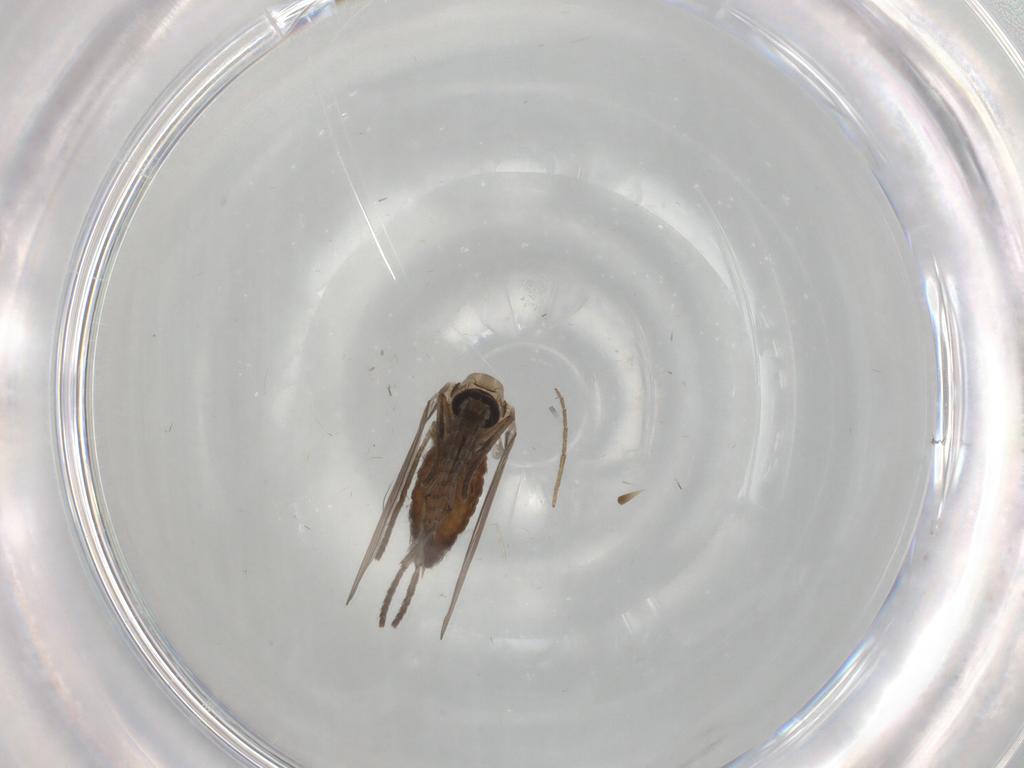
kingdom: Animalia
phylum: Arthropoda
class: Insecta
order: Diptera
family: Psychodidae
